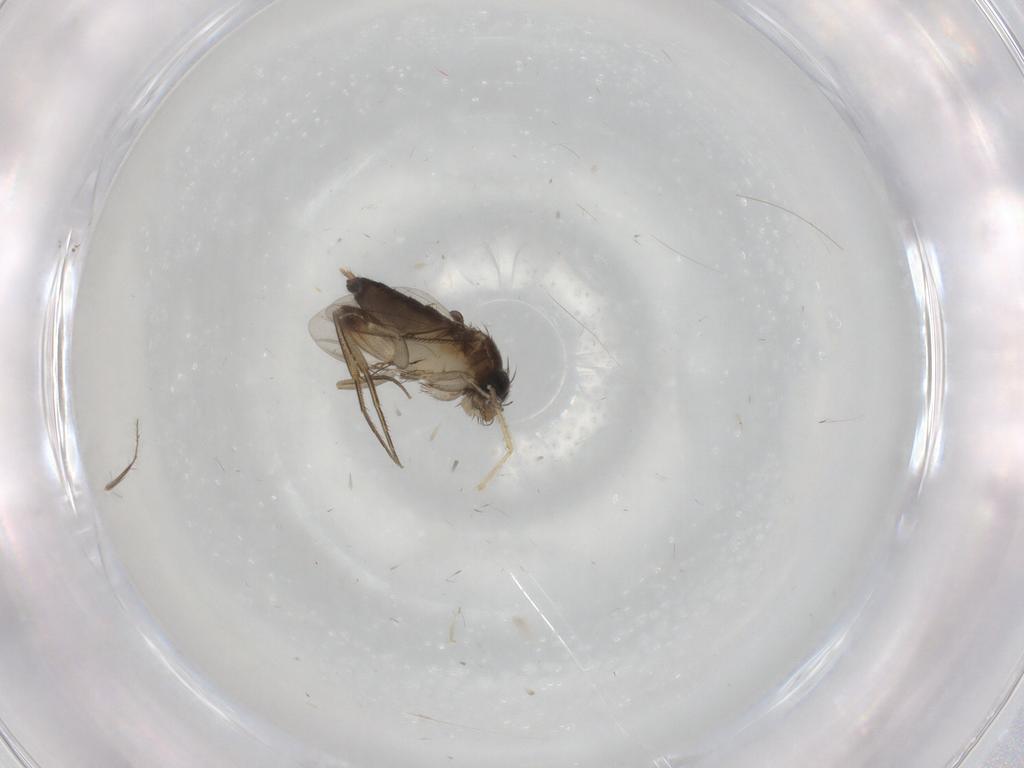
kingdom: Animalia
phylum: Arthropoda
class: Insecta
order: Diptera
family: Phoridae
